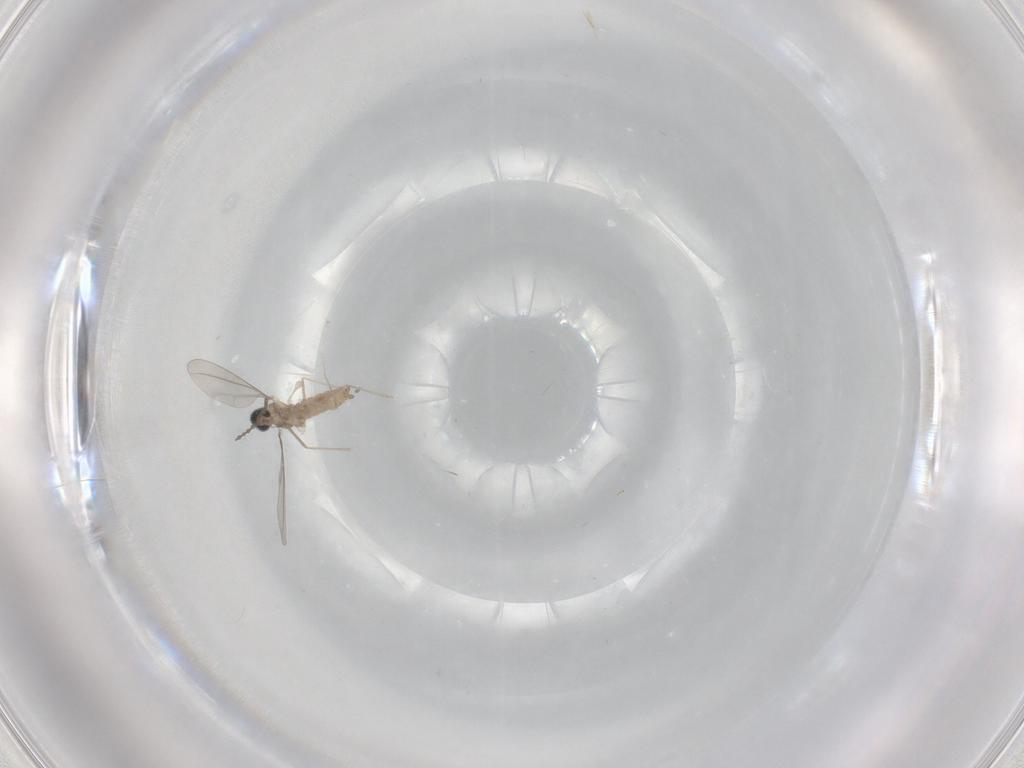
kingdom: Animalia
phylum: Arthropoda
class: Insecta
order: Diptera
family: Cecidomyiidae
